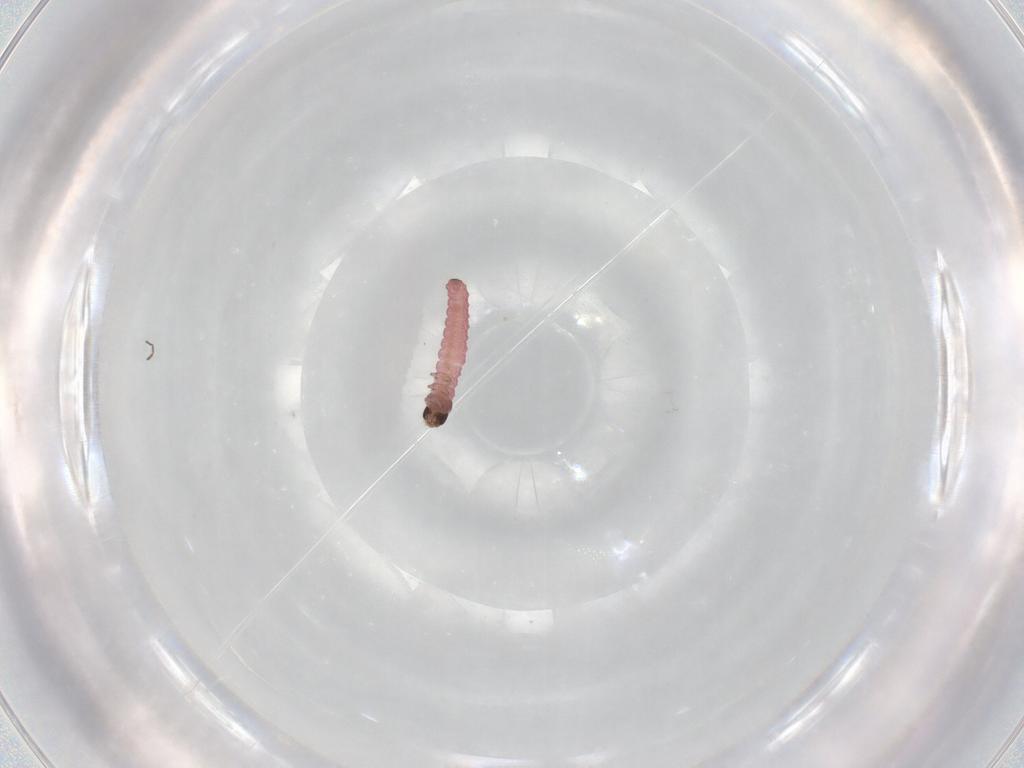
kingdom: Animalia
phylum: Arthropoda
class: Insecta
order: Lepidoptera
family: Oecophoridae
